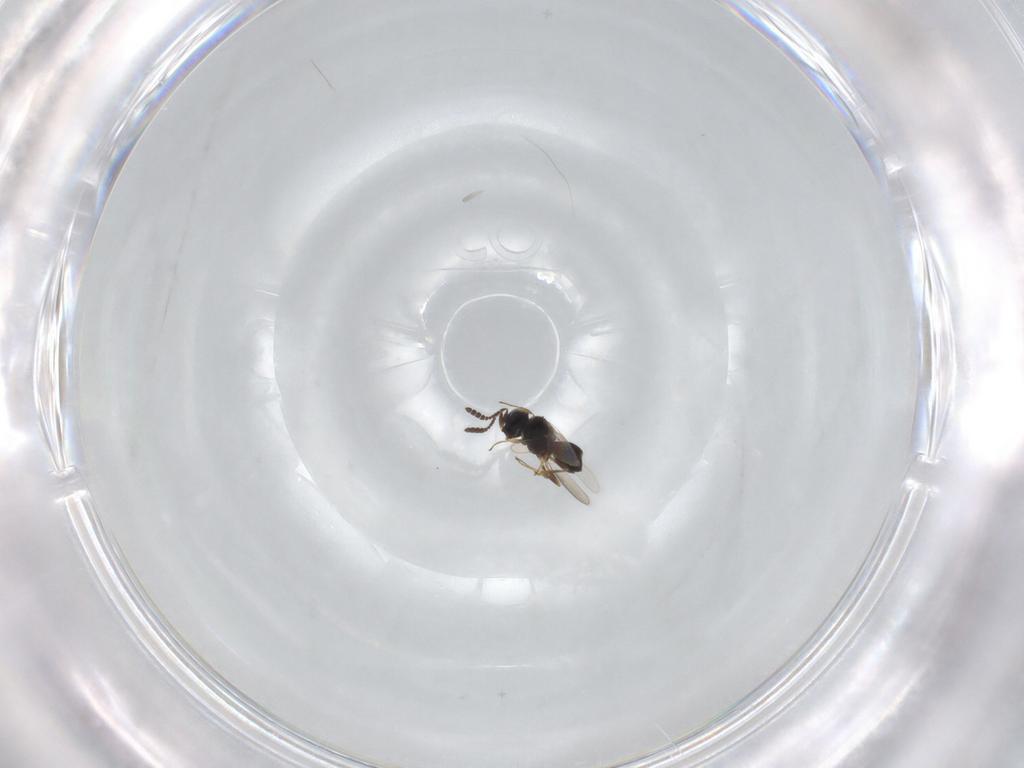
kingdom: Animalia
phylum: Arthropoda
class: Insecta
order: Hymenoptera
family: Scelionidae
